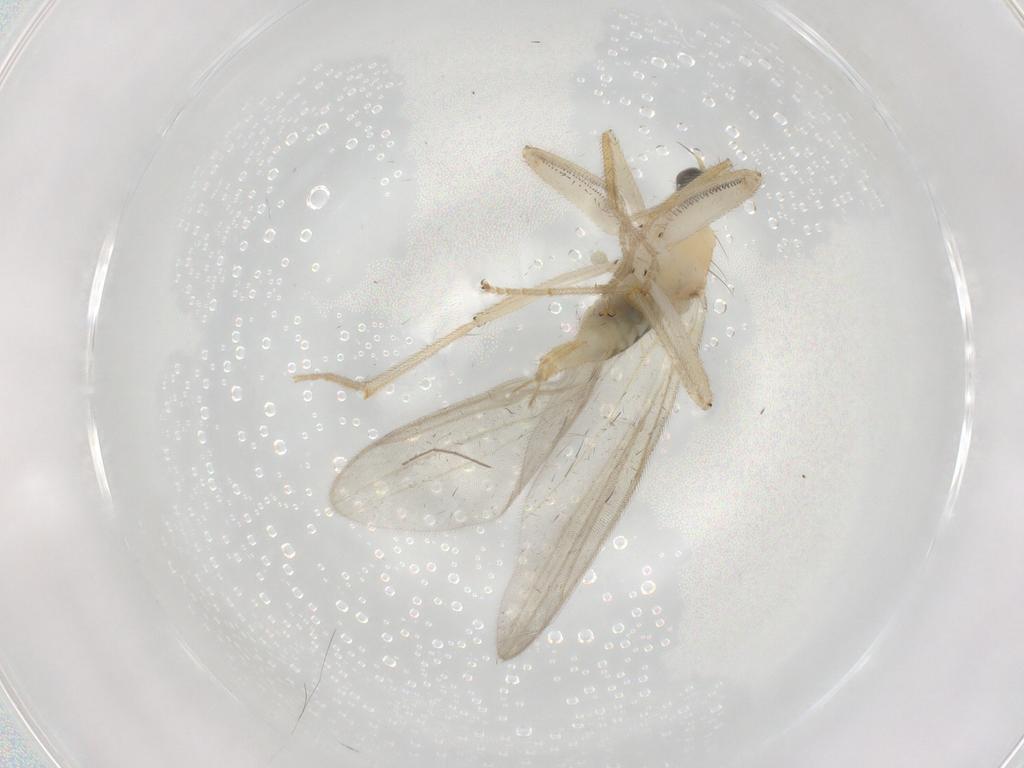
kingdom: Animalia
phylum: Arthropoda
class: Insecta
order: Diptera
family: Hybotidae
